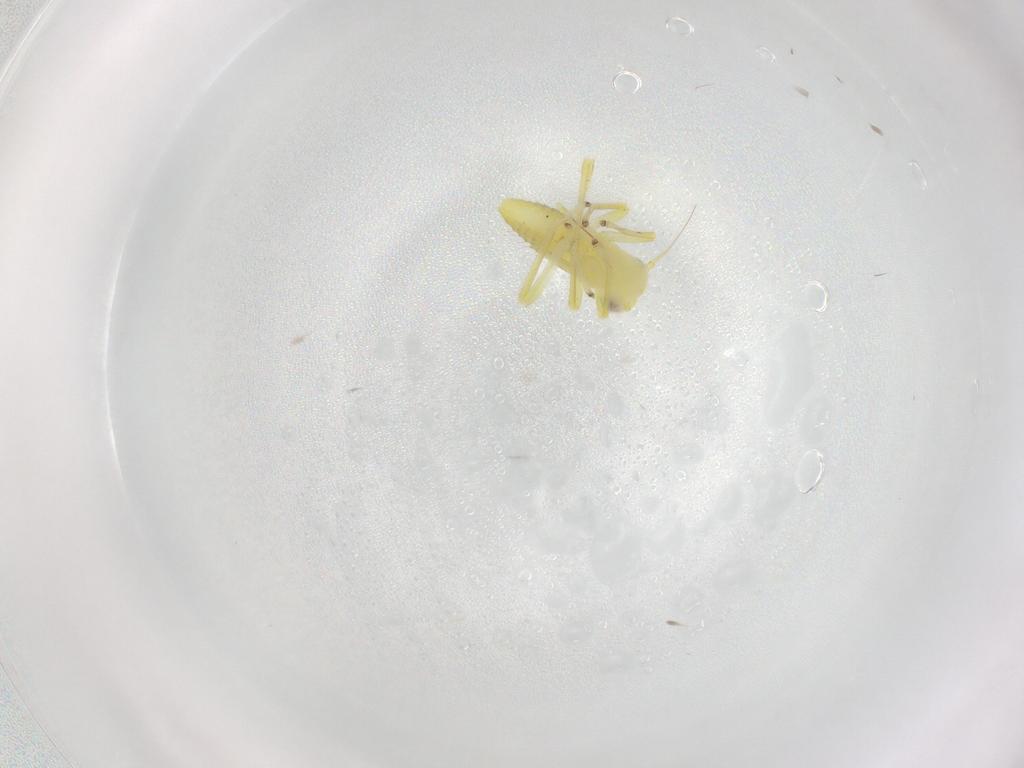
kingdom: Animalia
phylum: Arthropoda
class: Insecta
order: Hemiptera
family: Cicadellidae
